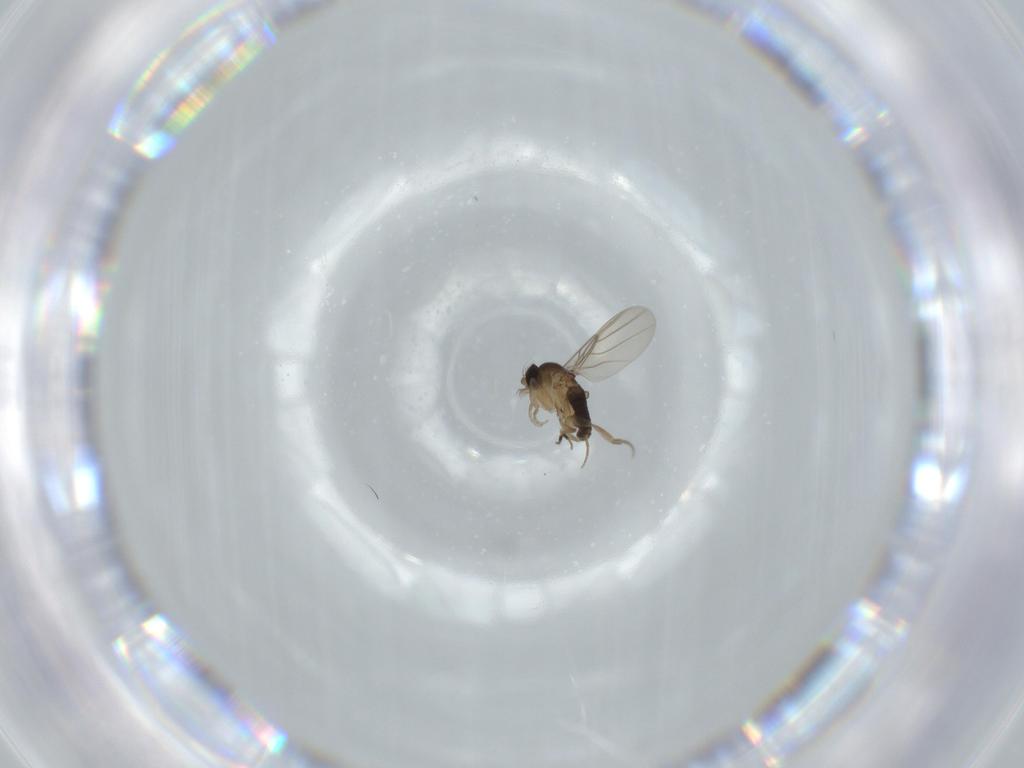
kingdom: Animalia
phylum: Arthropoda
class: Insecta
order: Diptera
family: Phoridae
